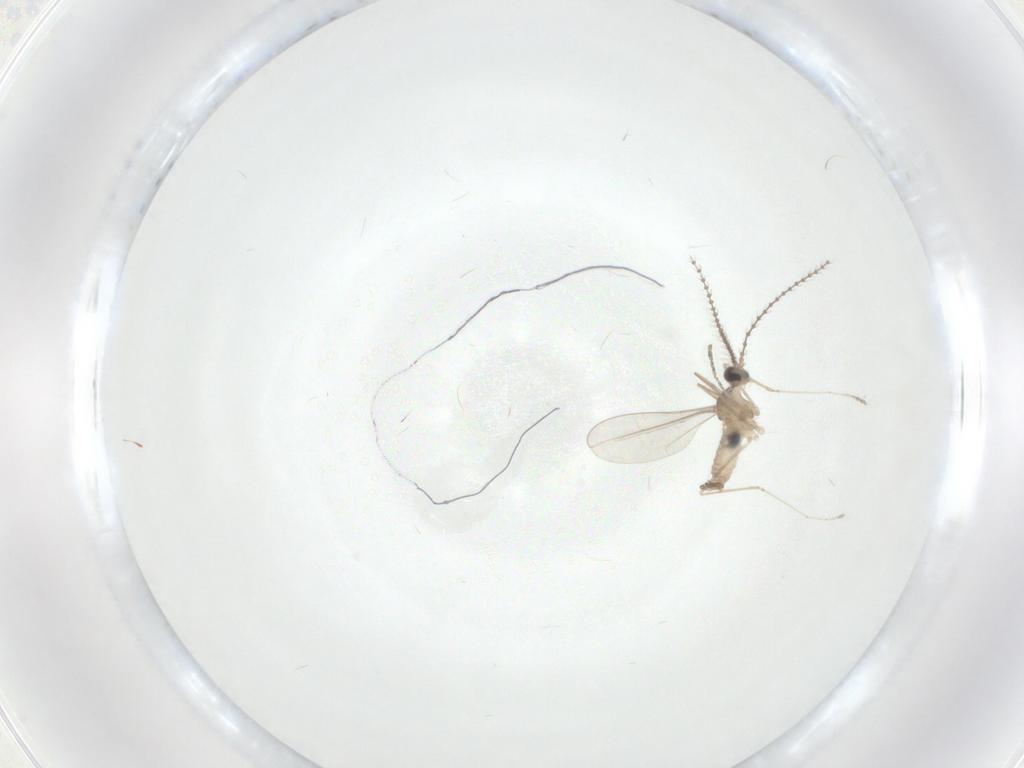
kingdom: Animalia
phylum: Arthropoda
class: Insecta
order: Diptera
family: Cecidomyiidae
